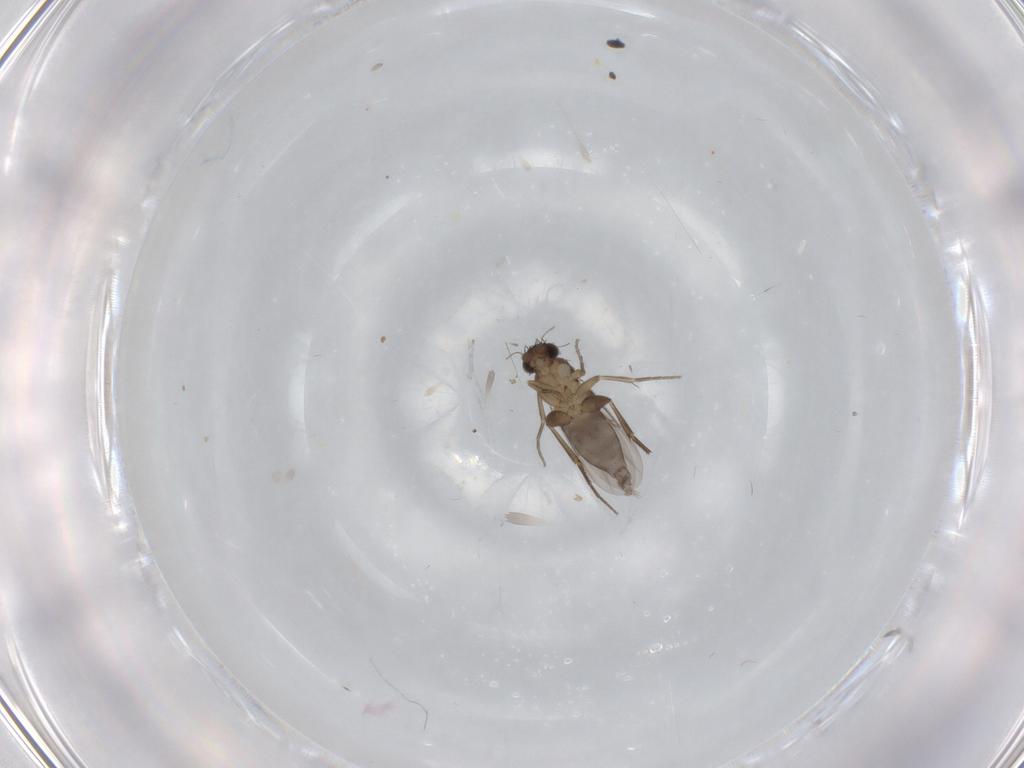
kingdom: Animalia
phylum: Arthropoda
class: Insecta
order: Diptera
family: Phoridae
